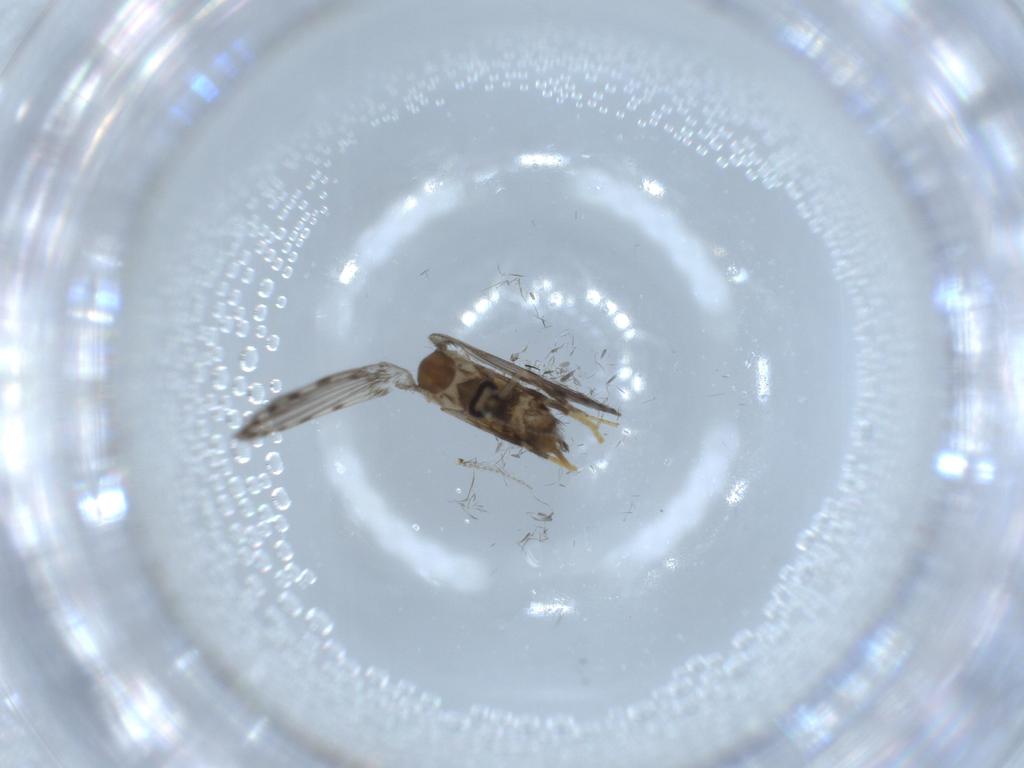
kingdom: Animalia
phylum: Arthropoda
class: Insecta
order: Diptera
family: Psychodidae
